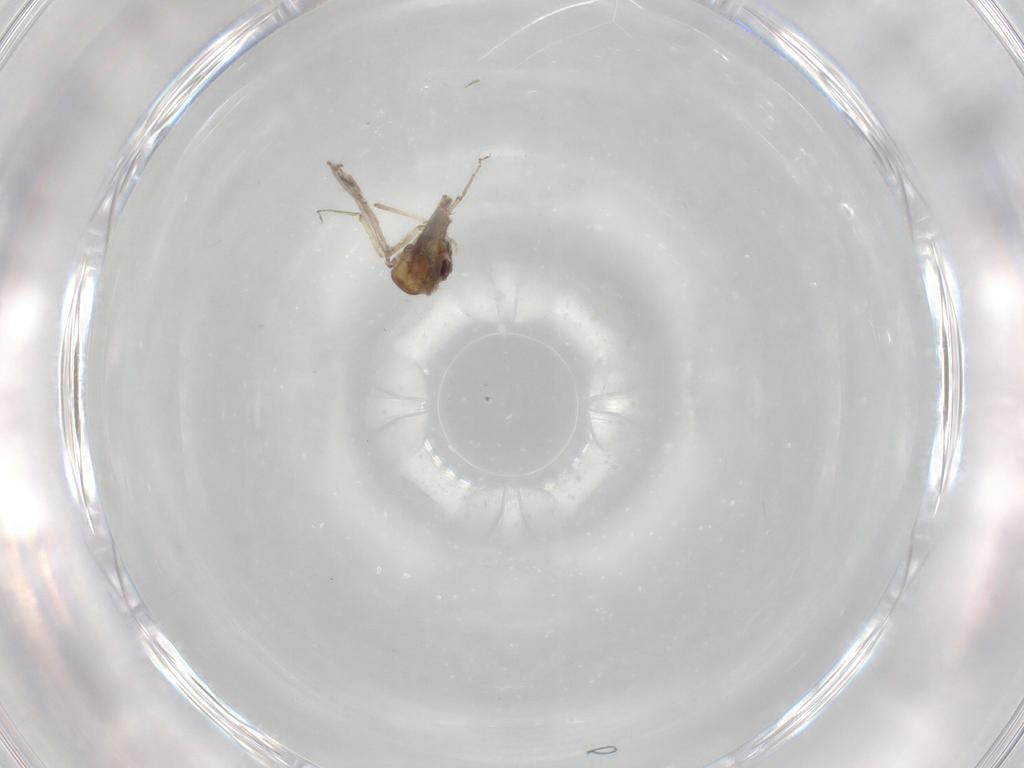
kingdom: Animalia
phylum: Arthropoda
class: Insecta
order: Diptera
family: Cecidomyiidae
